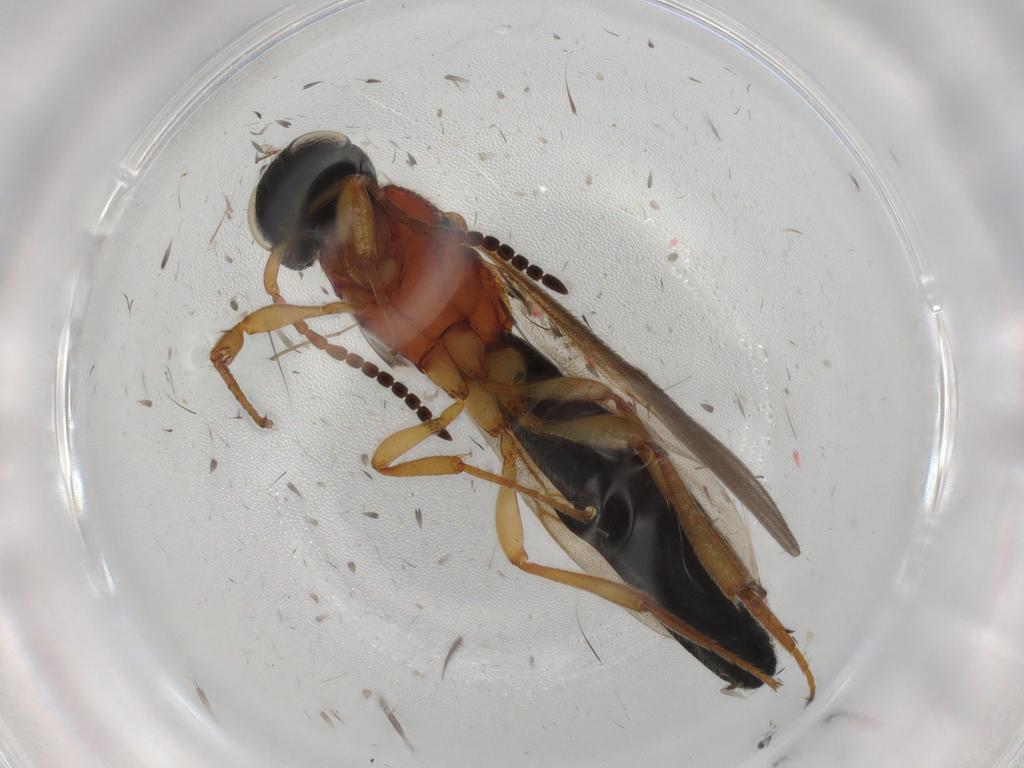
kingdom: Animalia
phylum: Arthropoda
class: Insecta
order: Hymenoptera
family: Scelionidae
